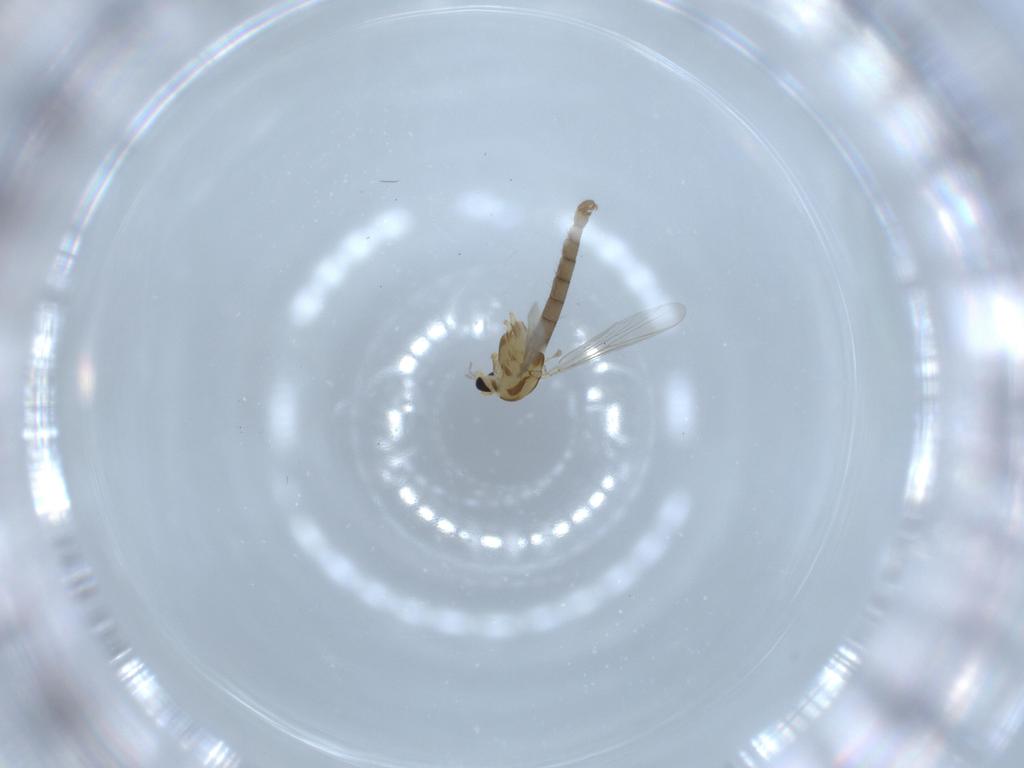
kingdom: Animalia
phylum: Arthropoda
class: Insecta
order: Diptera
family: Chironomidae
